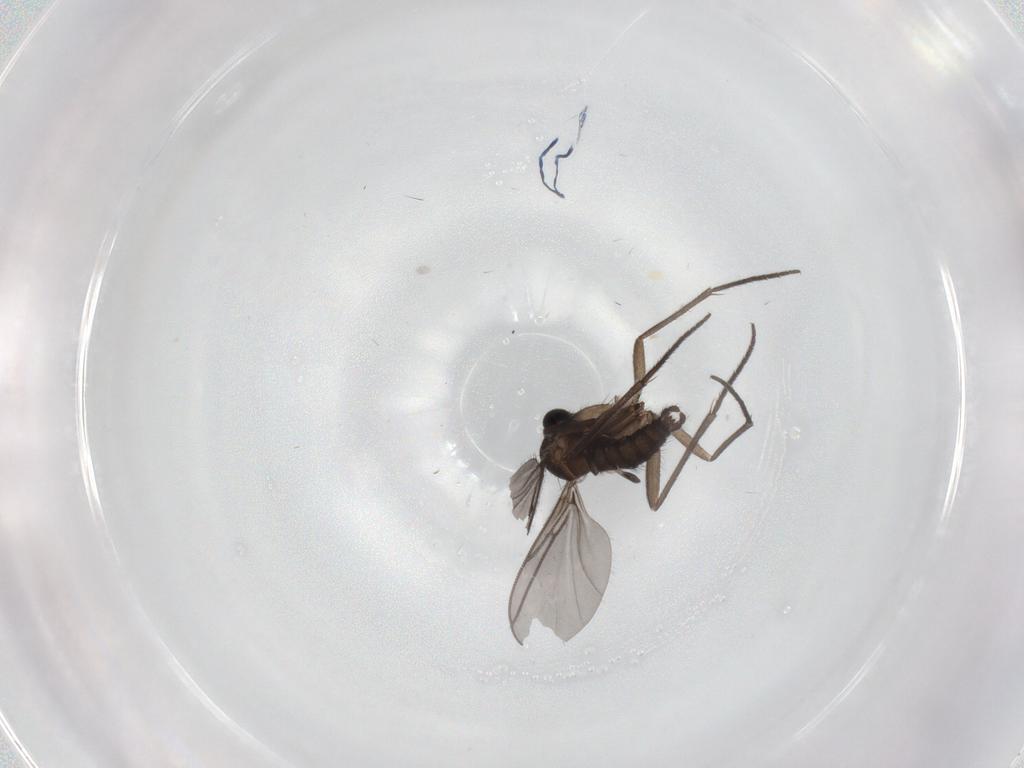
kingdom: Animalia
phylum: Arthropoda
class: Insecta
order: Diptera
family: Sciaridae
